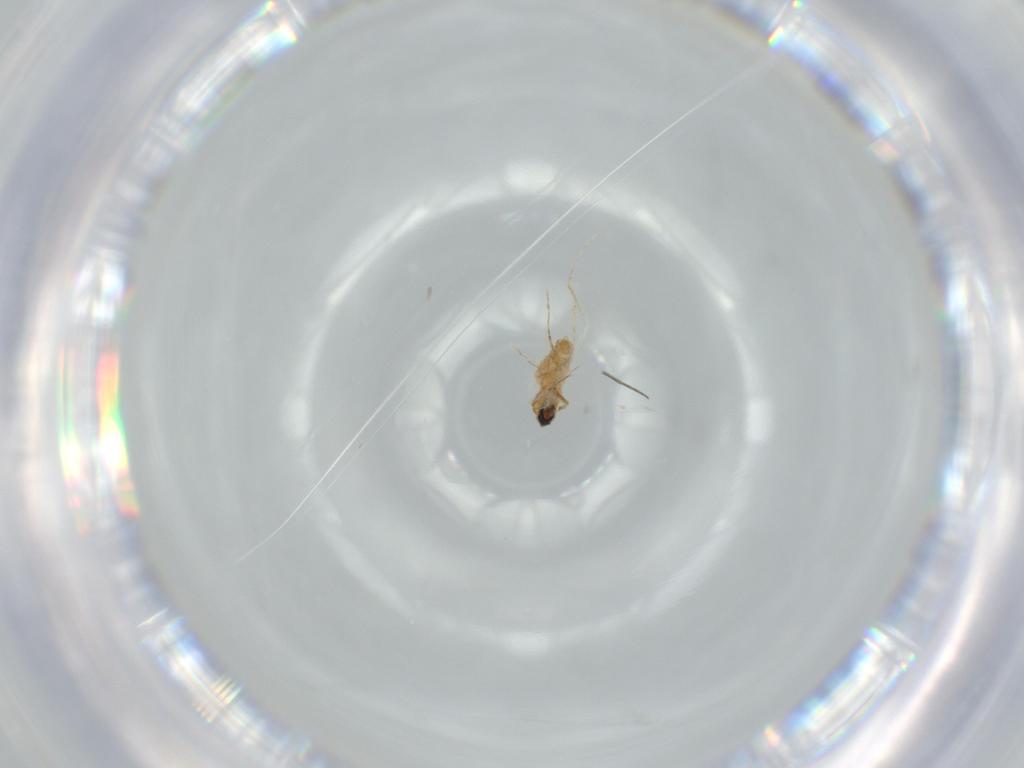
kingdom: Animalia
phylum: Arthropoda
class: Insecta
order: Diptera
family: Cecidomyiidae
